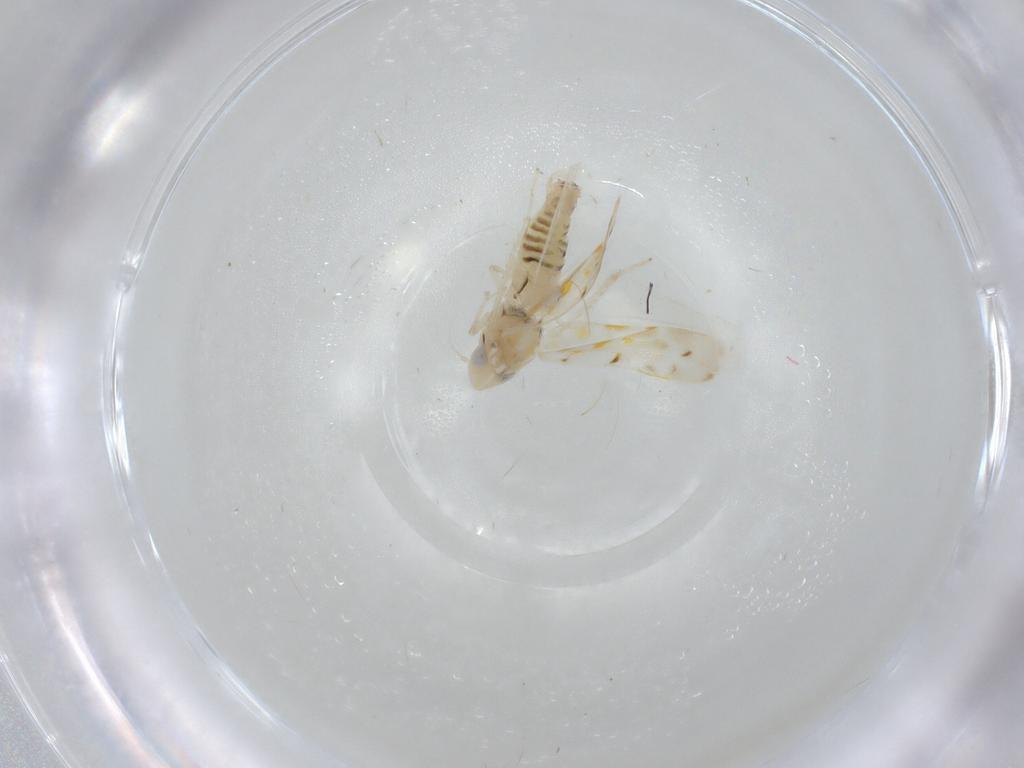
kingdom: Animalia
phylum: Arthropoda
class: Insecta
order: Hemiptera
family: Cicadellidae
